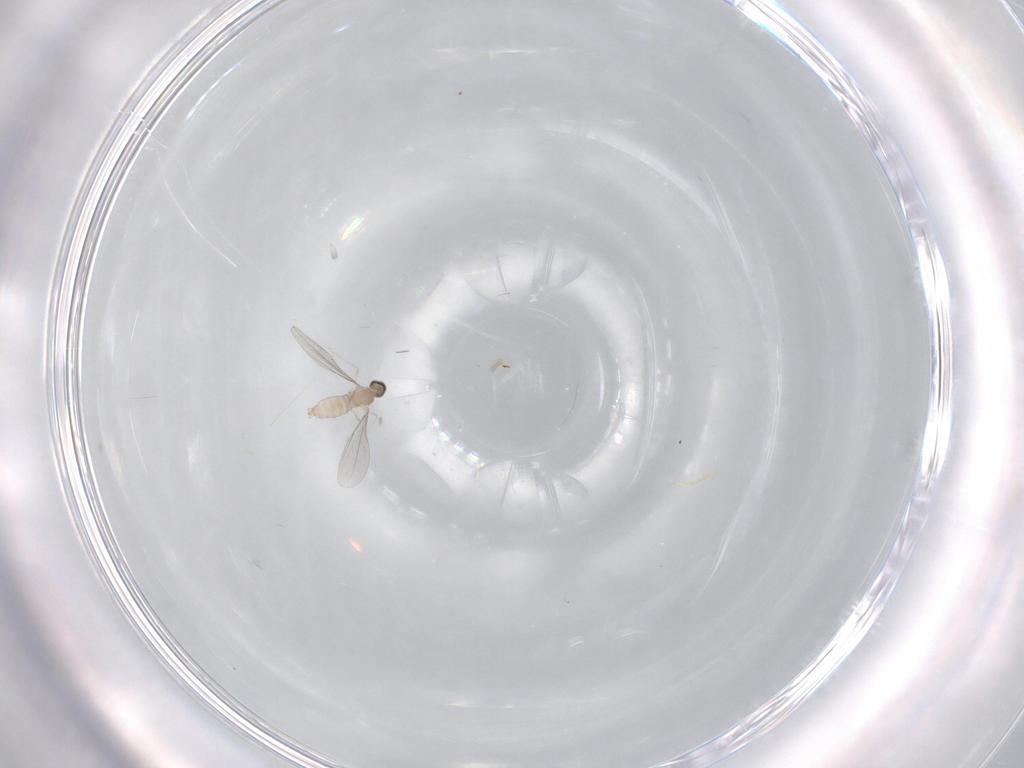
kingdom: Animalia
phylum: Arthropoda
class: Insecta
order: Diptera
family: Cecidomyiidae
